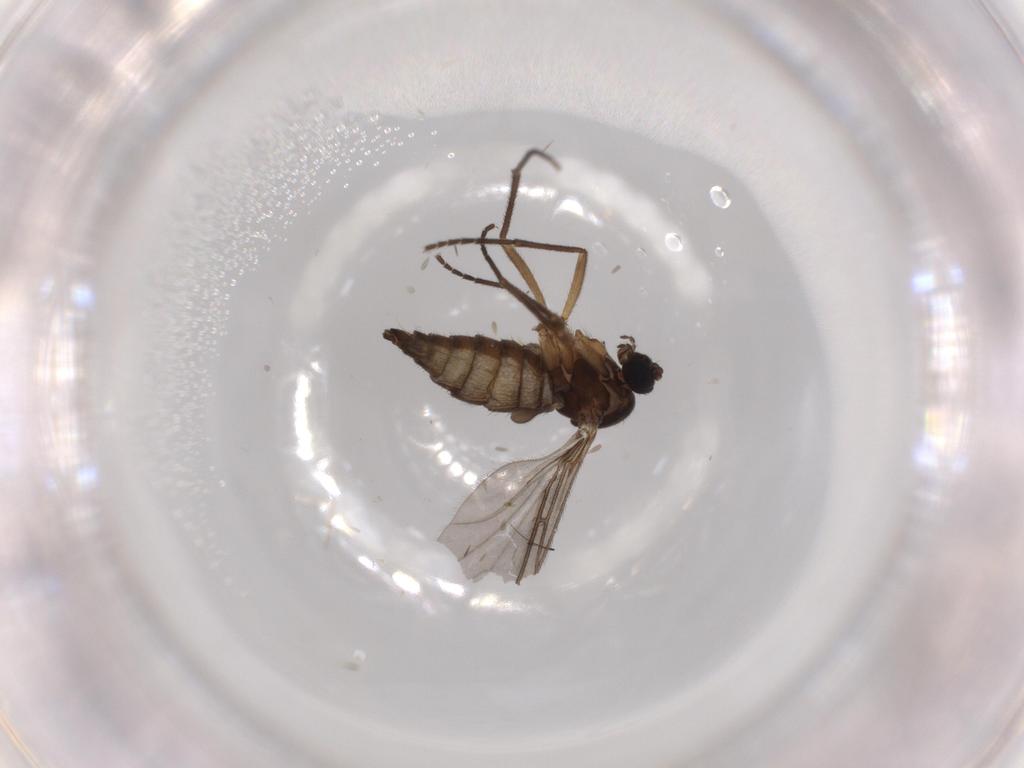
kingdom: Animalia
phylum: Arthropoda
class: Insecta
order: Diptera
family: Sciaridae
